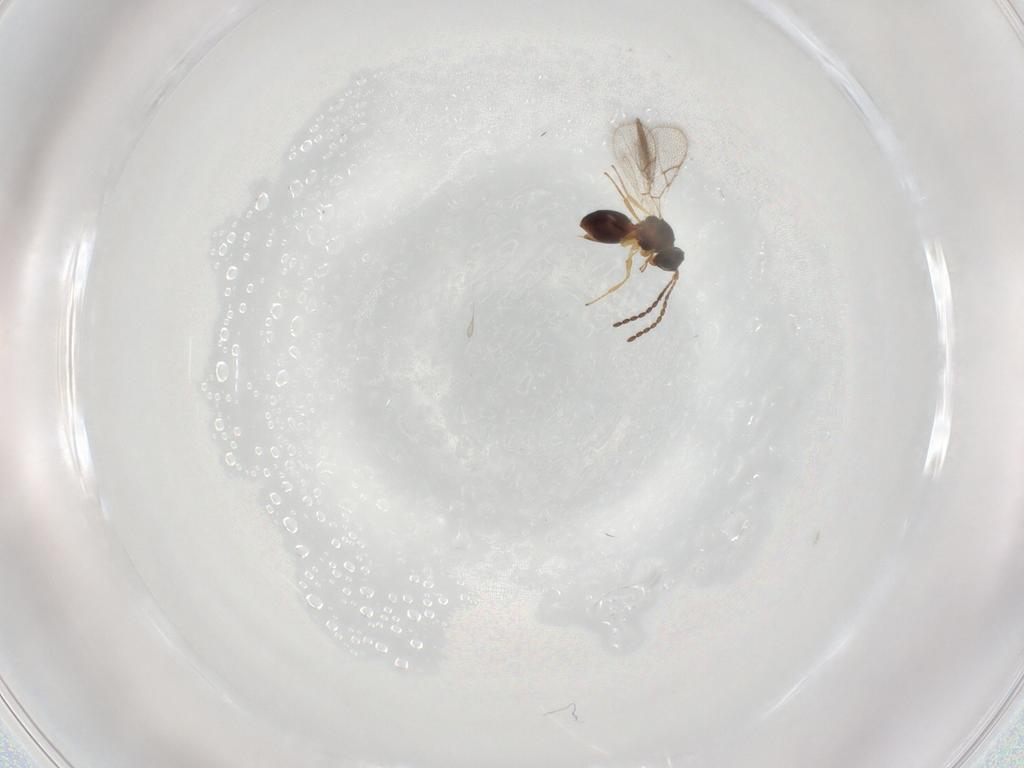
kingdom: Animalia
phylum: Arthropoda
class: Insecta
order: Hymenoptera
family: Figitidae
